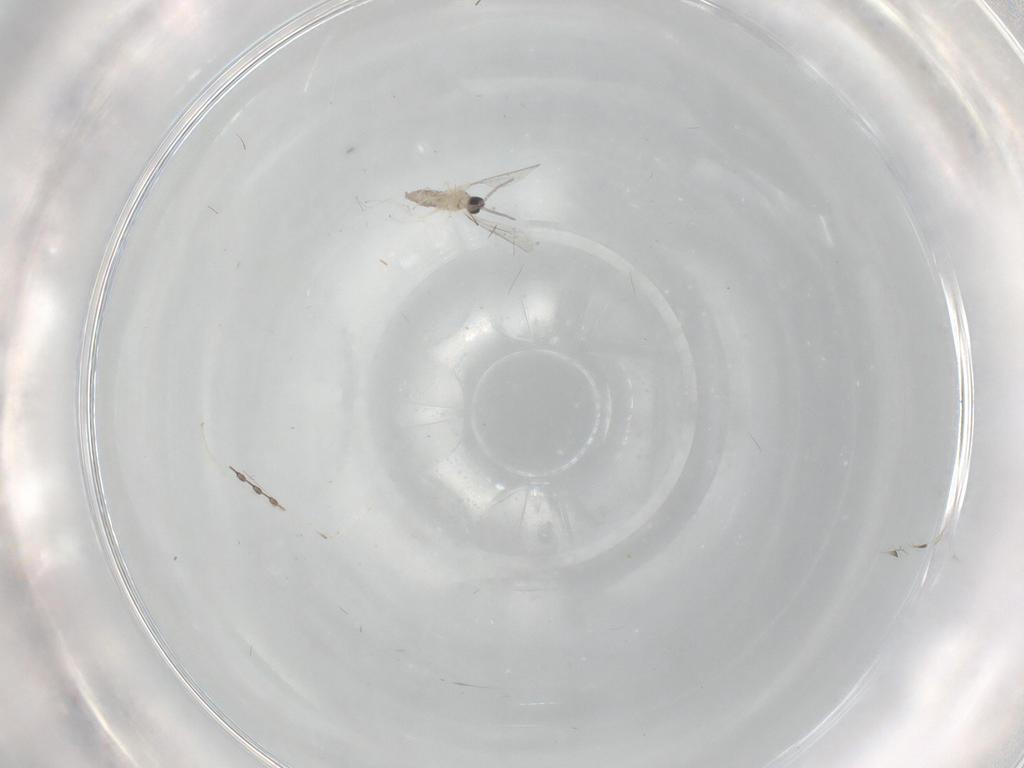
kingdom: Animalia
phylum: Arthropoda
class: Insecta
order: Diptera
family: Cecidomyiidae
